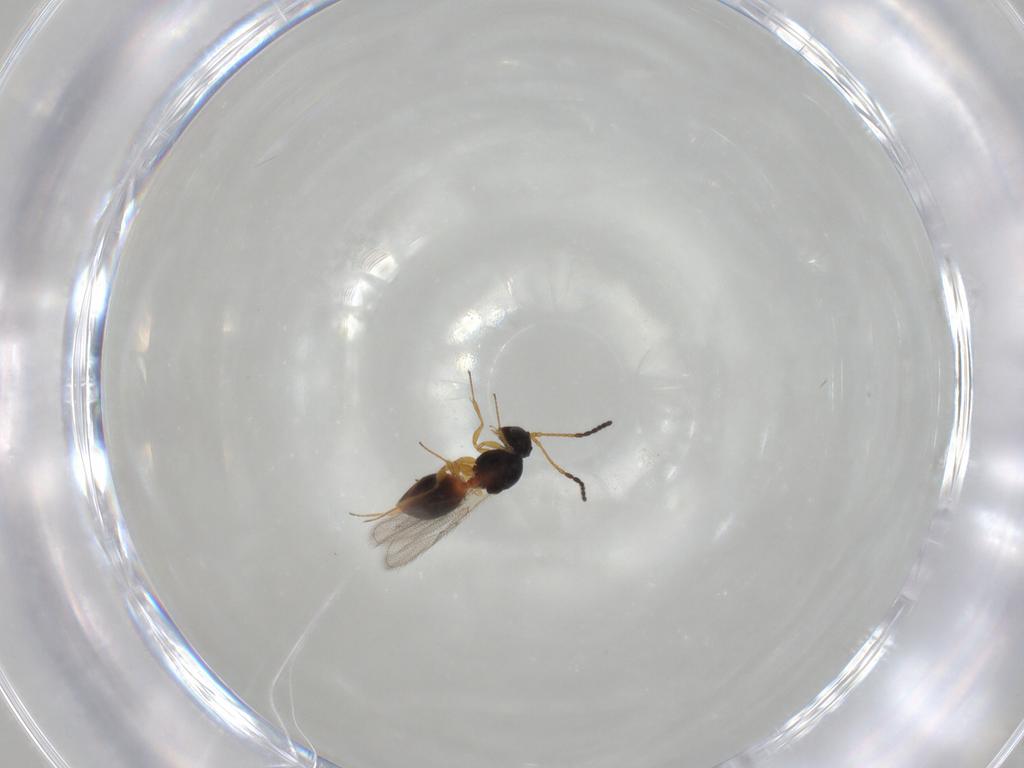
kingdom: Animalia
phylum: Arthropoda
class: Insecta
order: Hymenoptera
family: Figitidae
